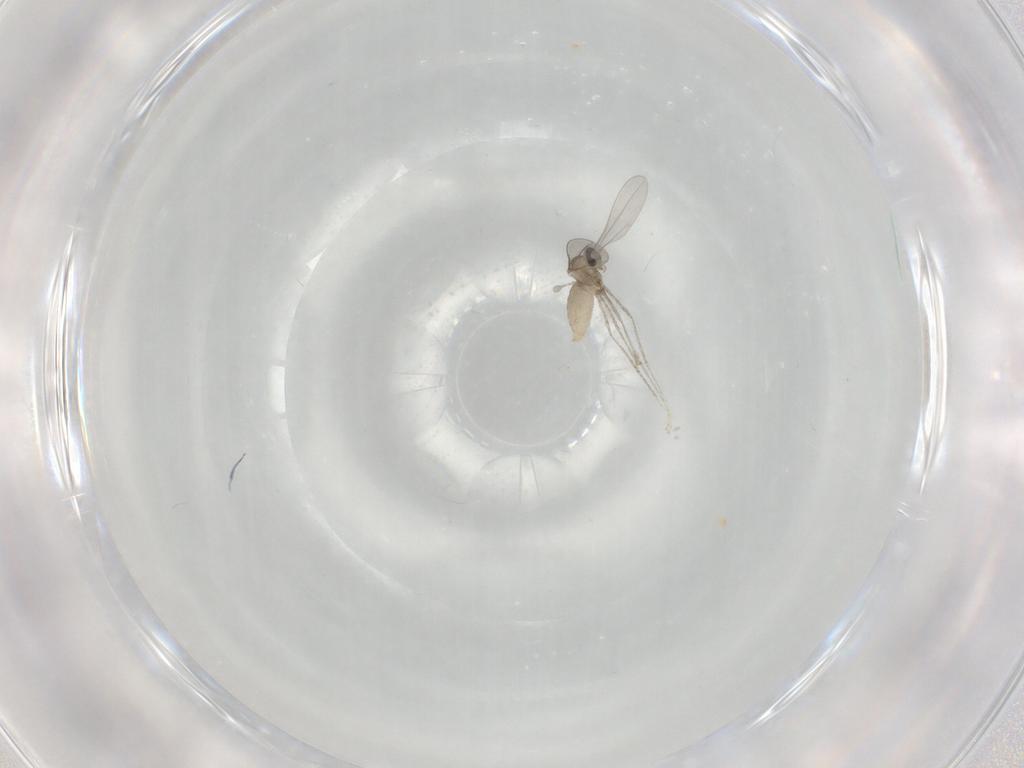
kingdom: Animalia
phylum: Arthropoda
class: Insecta
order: Diptera
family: Cecidomyiidae
